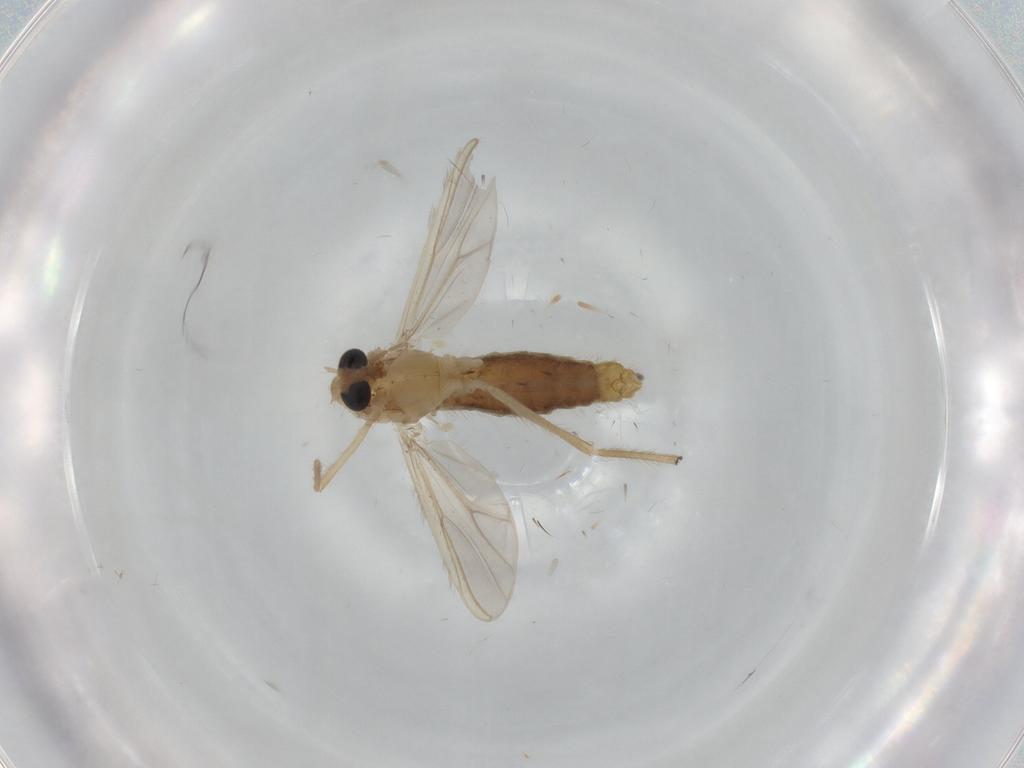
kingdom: Animalia
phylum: Arthropoda
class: Insecta
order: Diptera
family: Chironomidae
